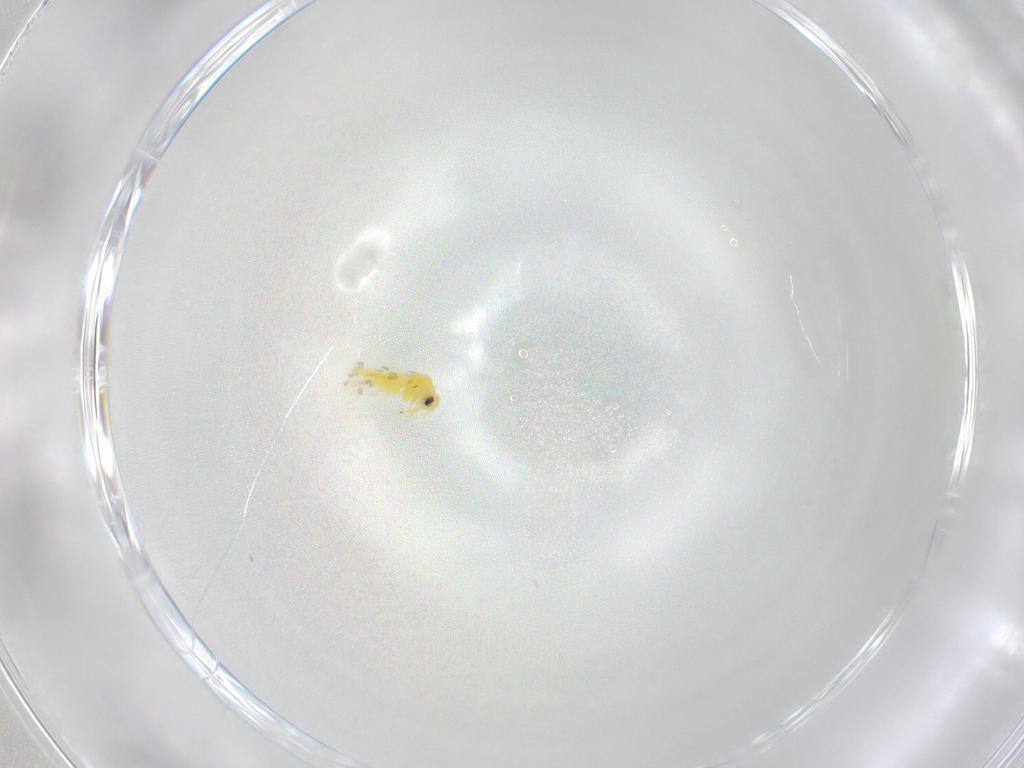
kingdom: Animalia
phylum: Arthropoda
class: Insecta
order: Hemiptera
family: Aleyrodidae
